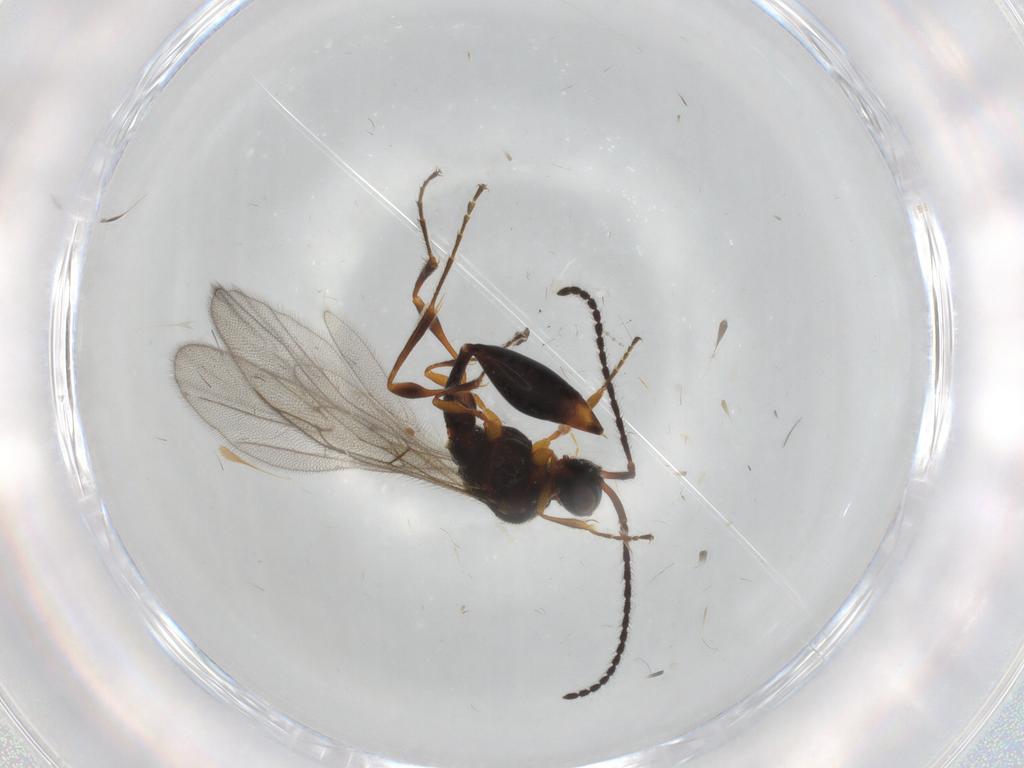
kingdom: Animalia
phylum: Arthropoda
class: Insecta
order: Hymenoptera
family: Diapriidae
